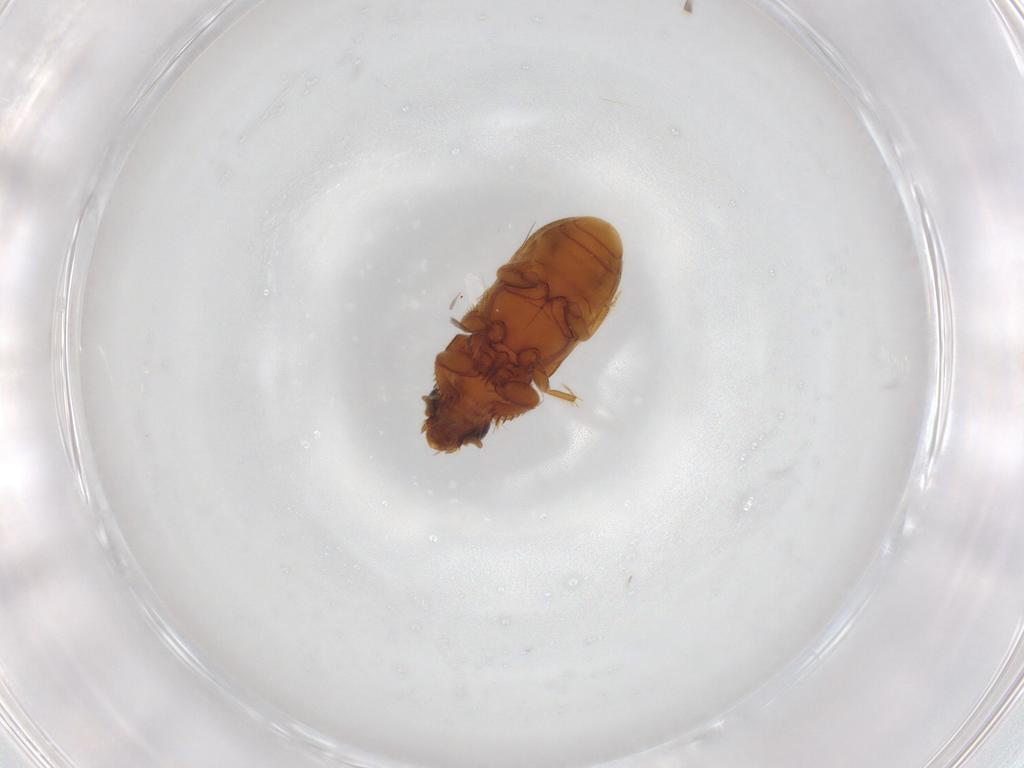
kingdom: Animalia
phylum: Arthropoda
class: Insecta
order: Coleoptera
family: Heteroceridae
